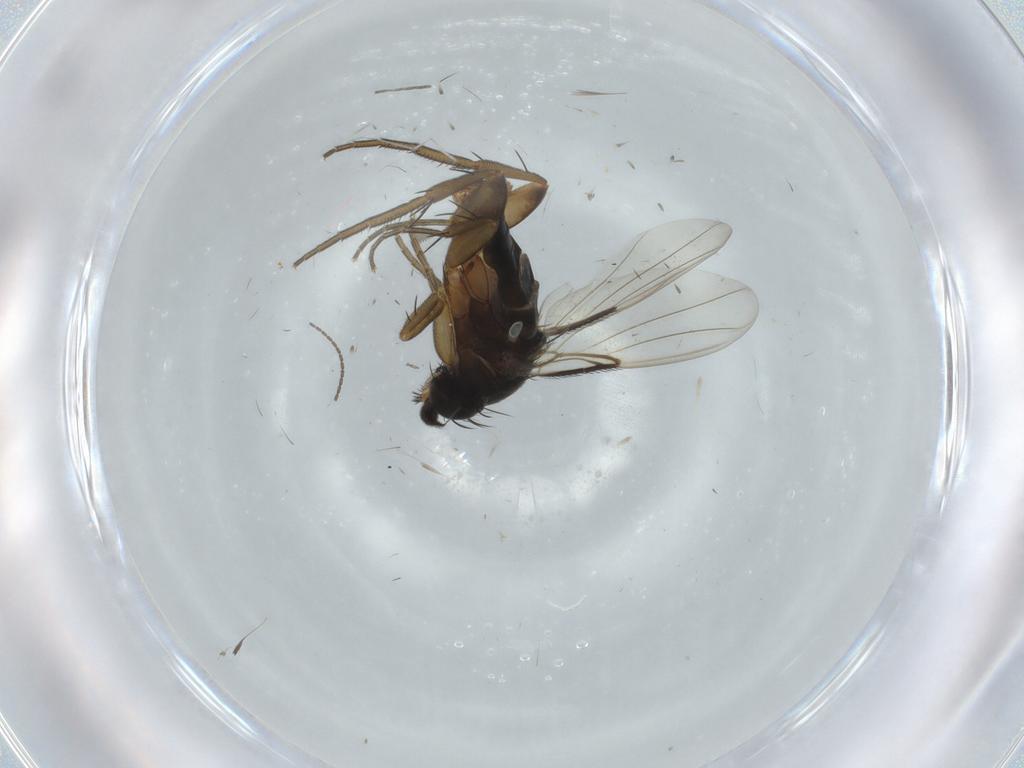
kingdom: Animalia
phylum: Arthropoda
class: Insecta
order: Diptera
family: Phoridae
